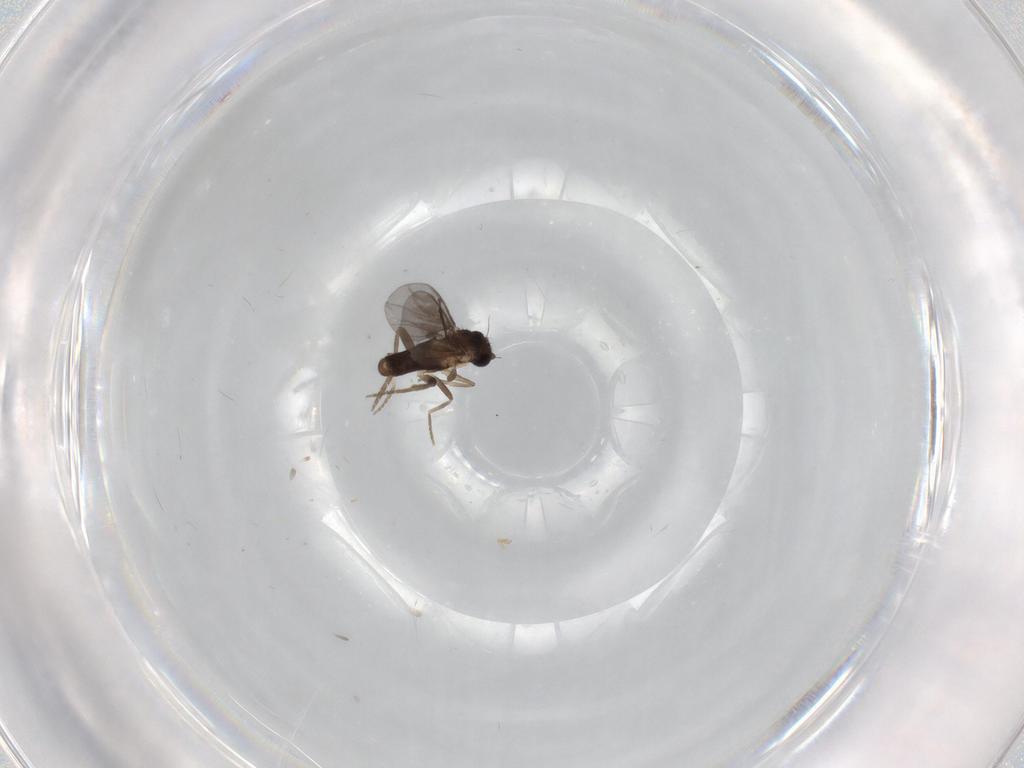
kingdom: Animalia
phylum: Arthropoda
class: Insecta
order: Diptera
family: Phoridae
